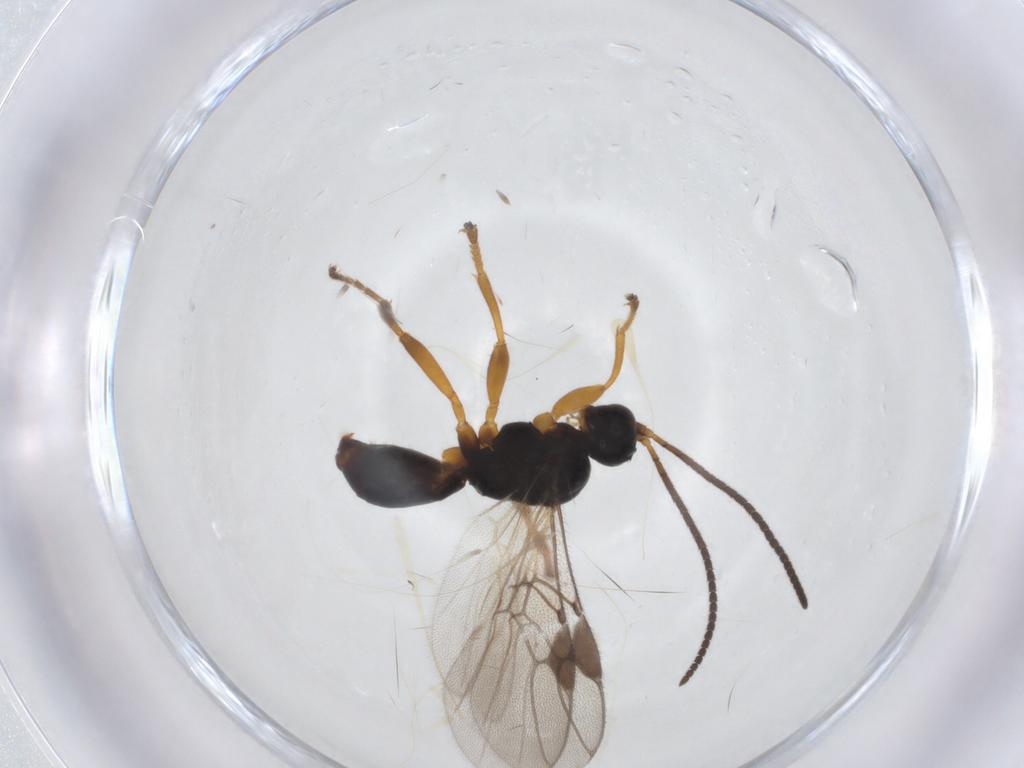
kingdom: Animalia
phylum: Arthropoda
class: Insecta
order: Hymenoptera
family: Braconidae
